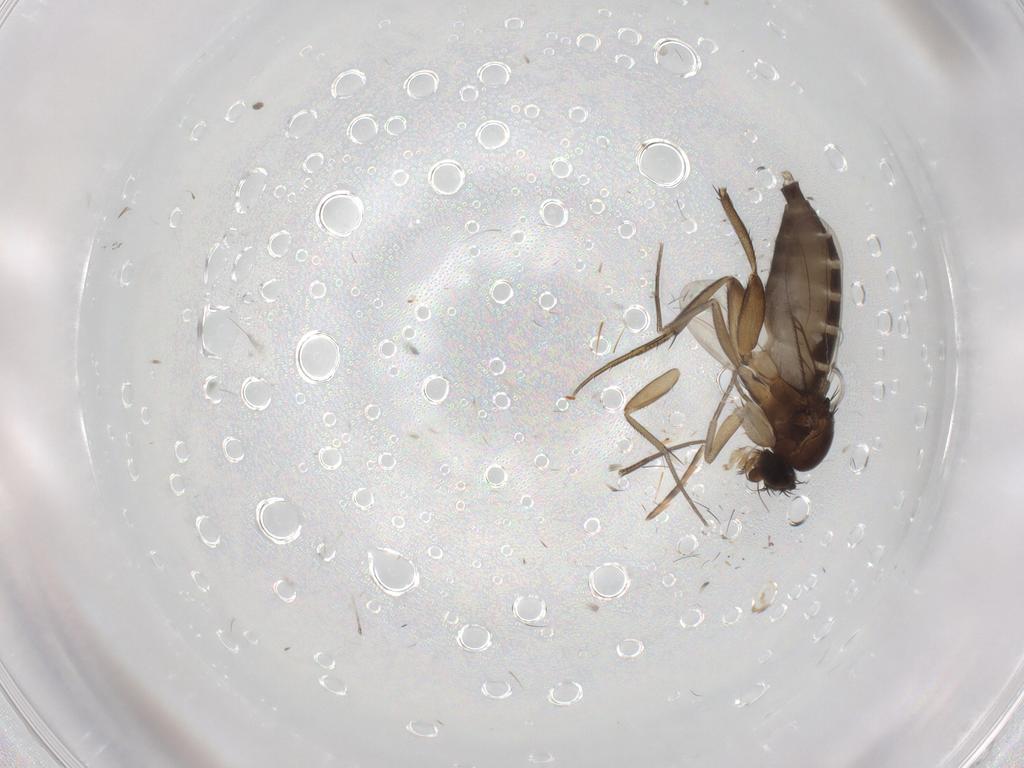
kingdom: Animalia
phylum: Arthropoda
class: Insecta
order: Diptera
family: Phoridae
